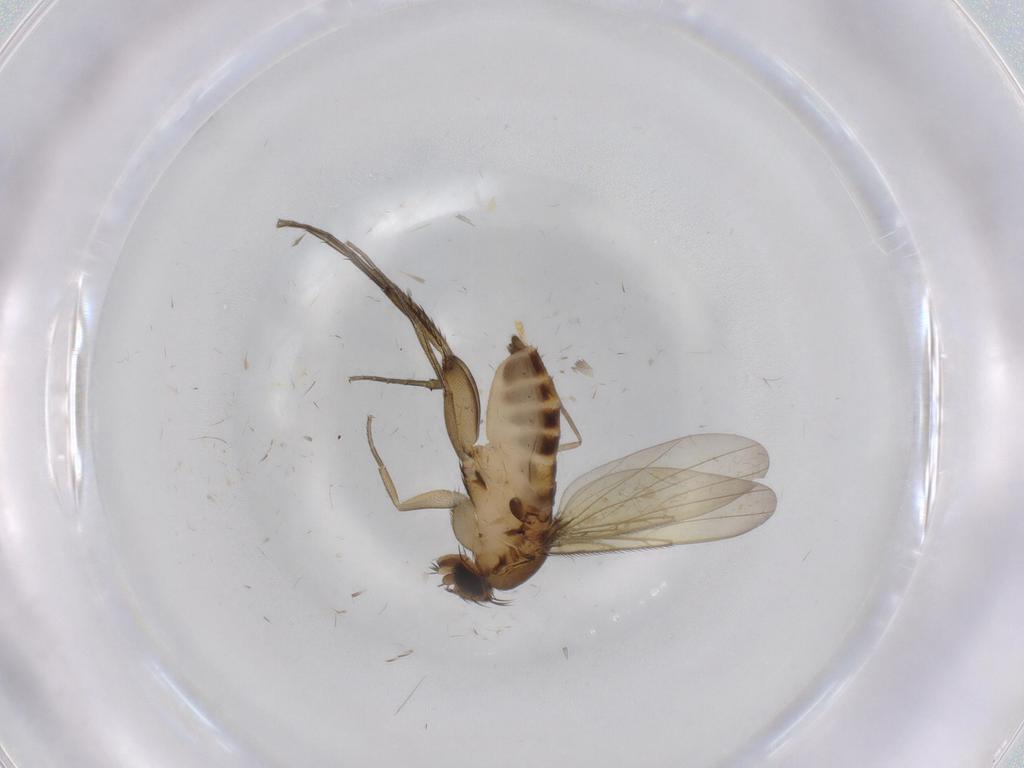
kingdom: Animalia
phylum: Arthropoda
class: Insecta
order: Diptera
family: Phoridae
